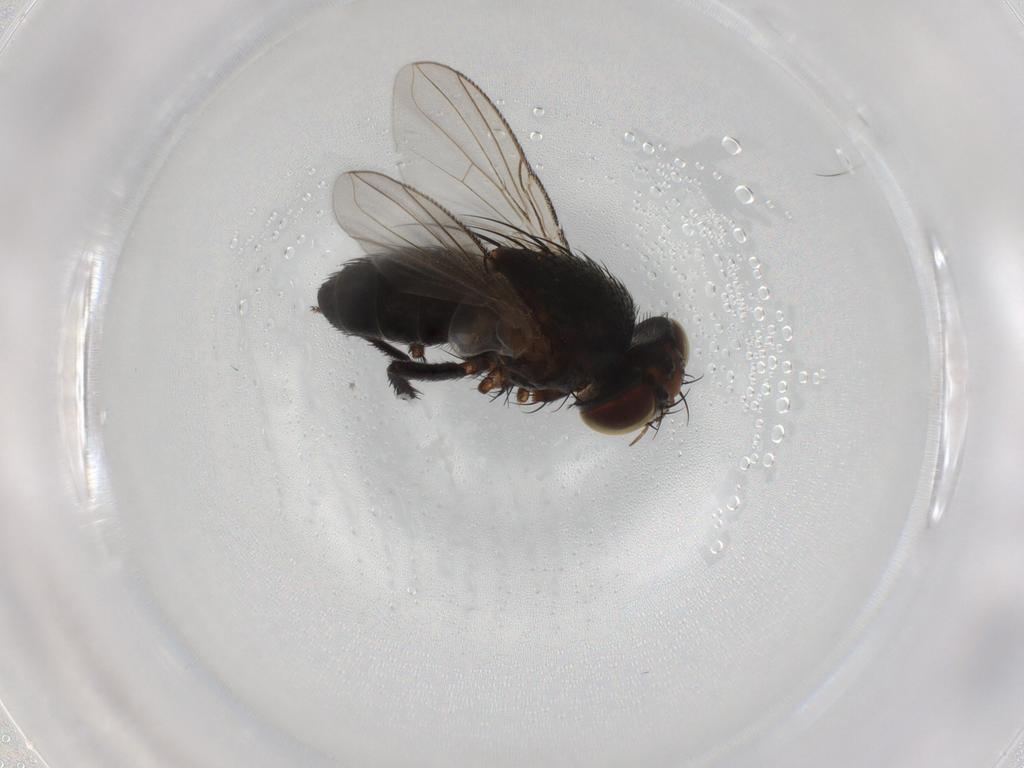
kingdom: Animalia
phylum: Arthropoda
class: Insecta
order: Diptera
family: Tachinidae
